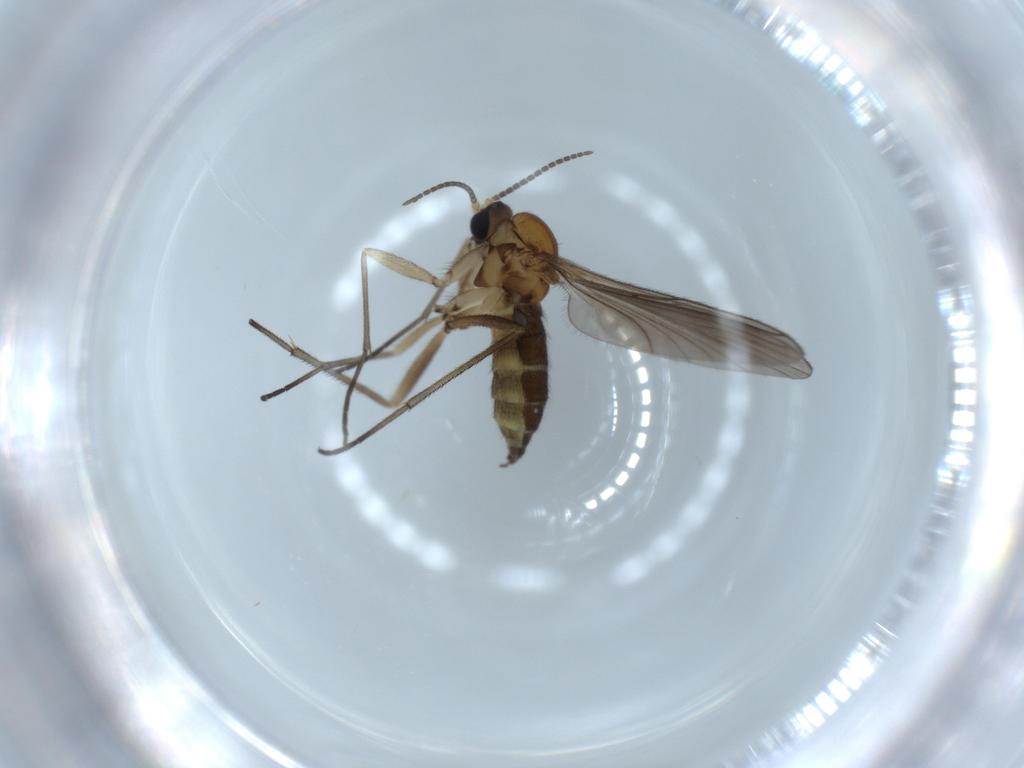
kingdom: Animalia
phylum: Arthropoda
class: Insecta
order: Diptera
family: Sciaridae
